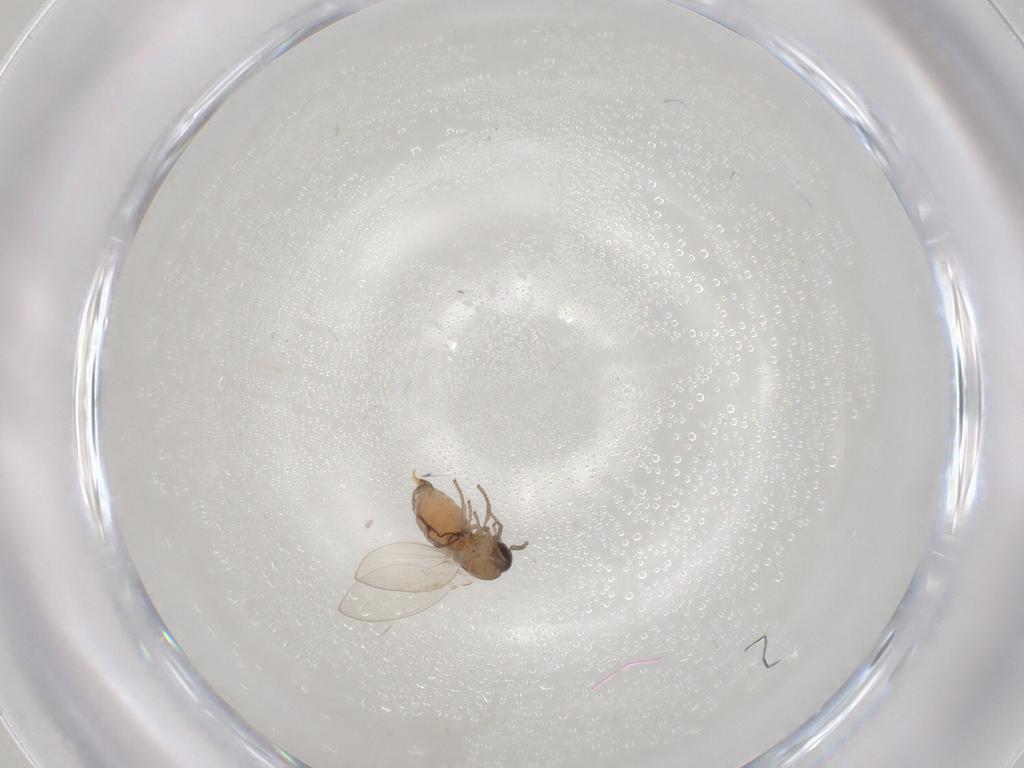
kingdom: Animalia
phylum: Arthropoda
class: Insecta
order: Diptera
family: Psychodidae
